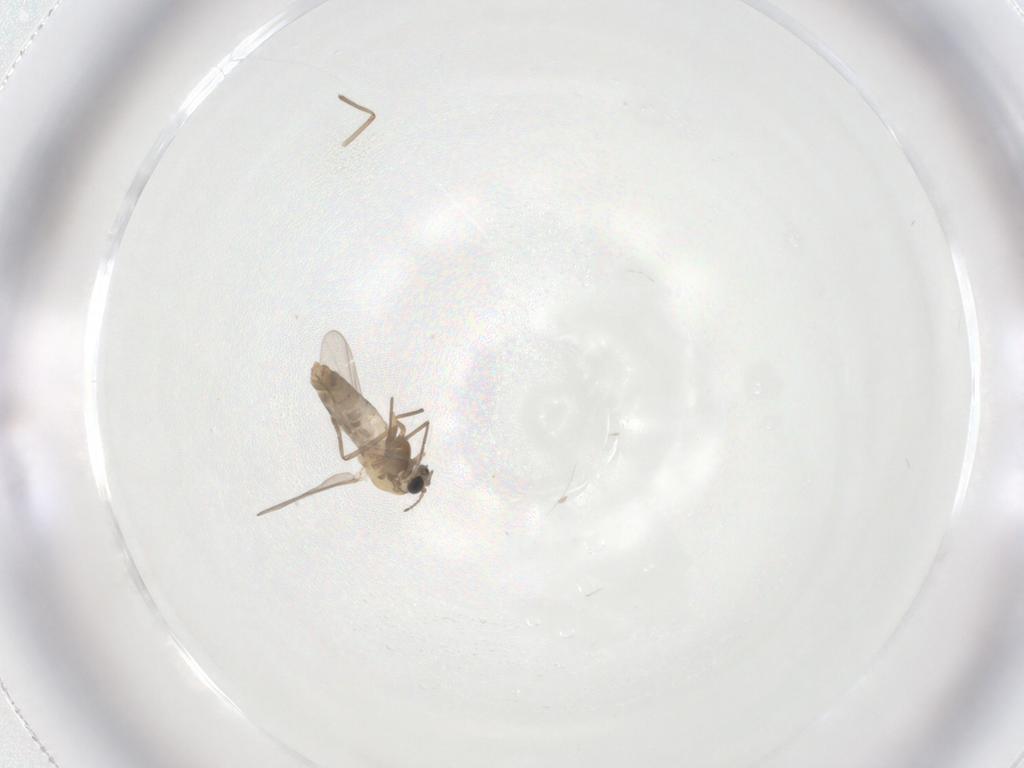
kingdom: Animalia
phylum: Arthropoda
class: Insecta
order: Diptera
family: Chironomidae
